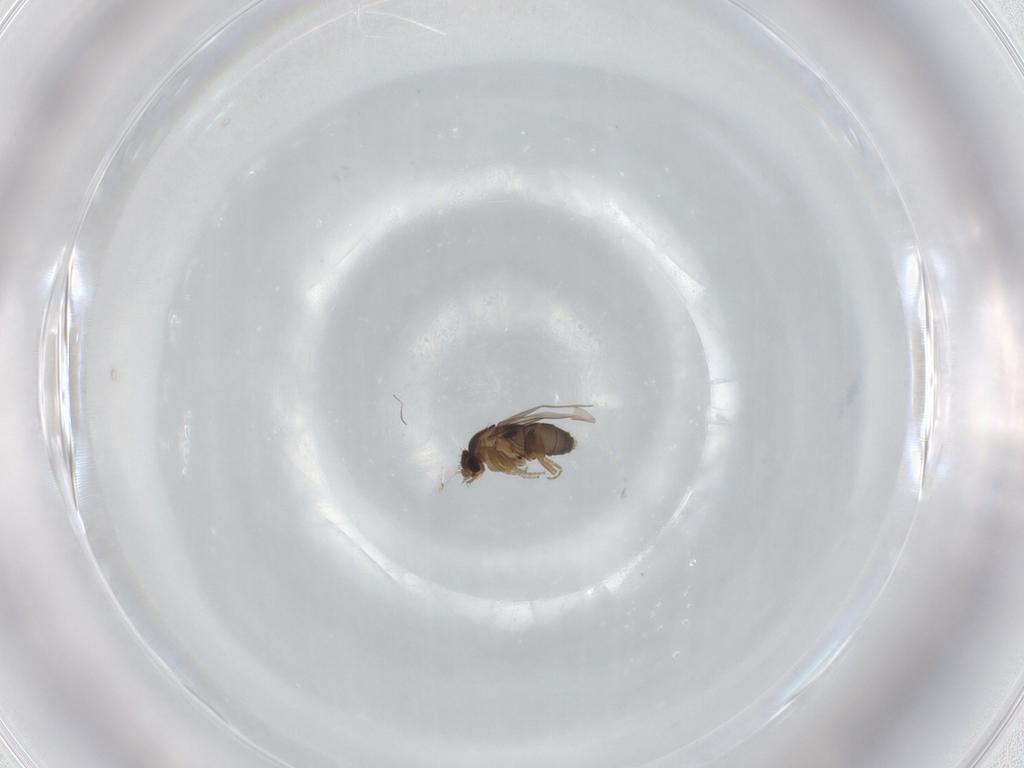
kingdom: Animalia
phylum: Arthropoda
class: Insecta
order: Diptera
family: Phoridae
